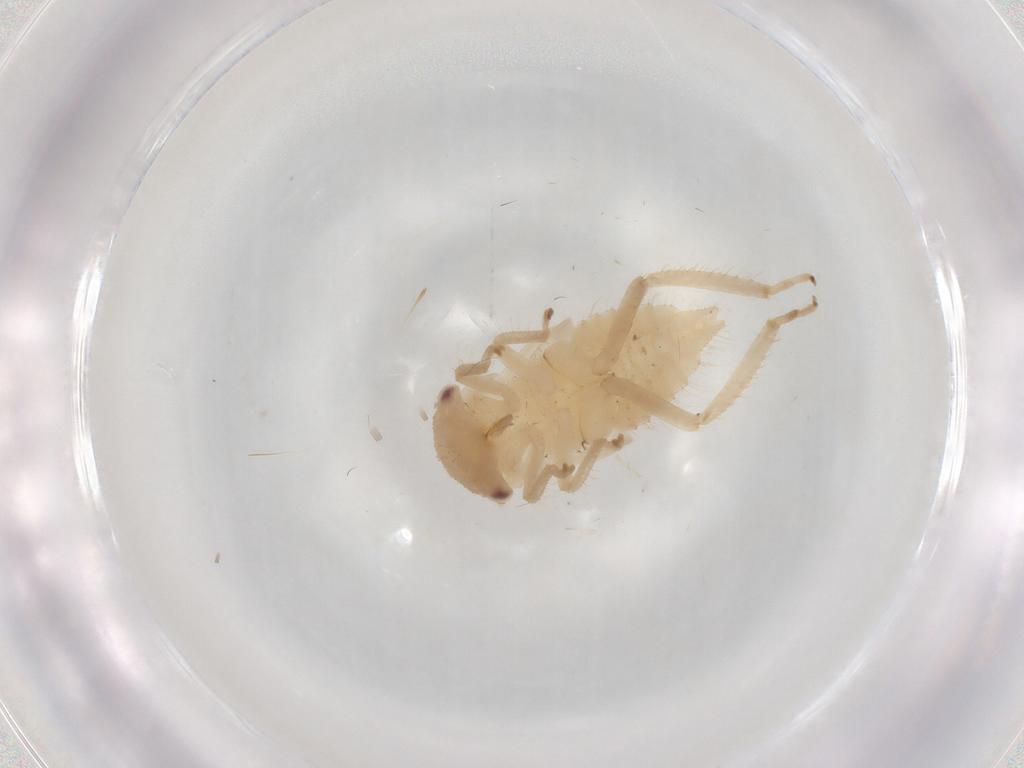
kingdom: Animalia
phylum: Arthropoda
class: Insecta
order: Hemiptera
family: Cicadellidae
